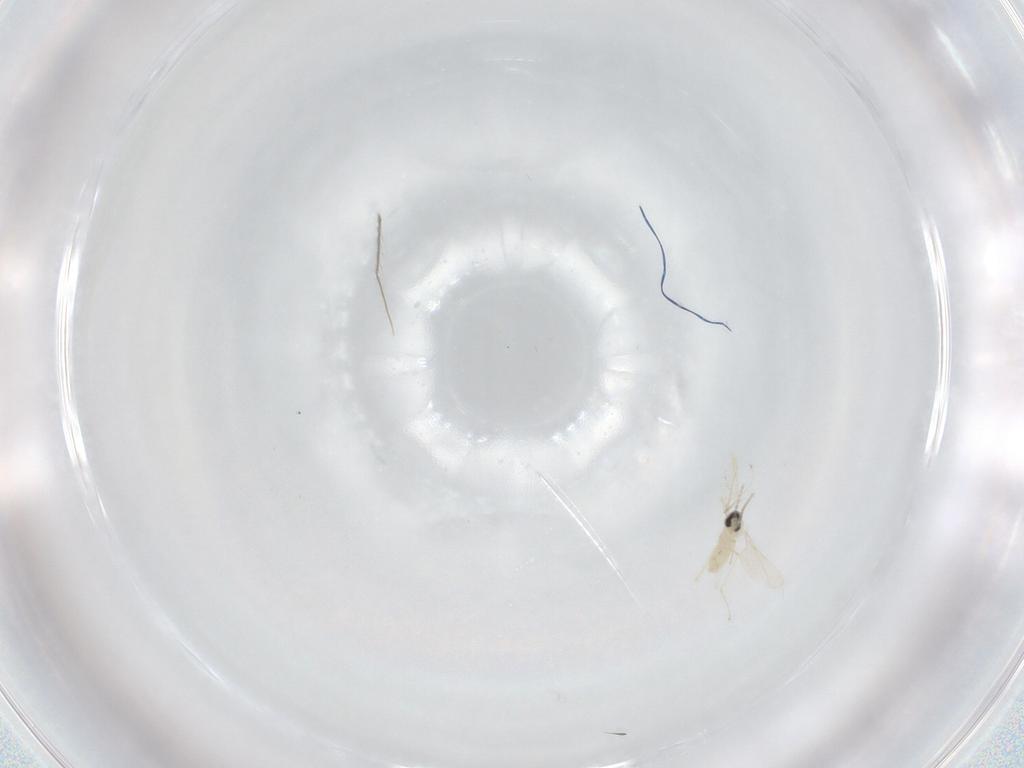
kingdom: Animalia
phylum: Arthropoda
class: Insecta
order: Diptera
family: Cecidomyiidae
